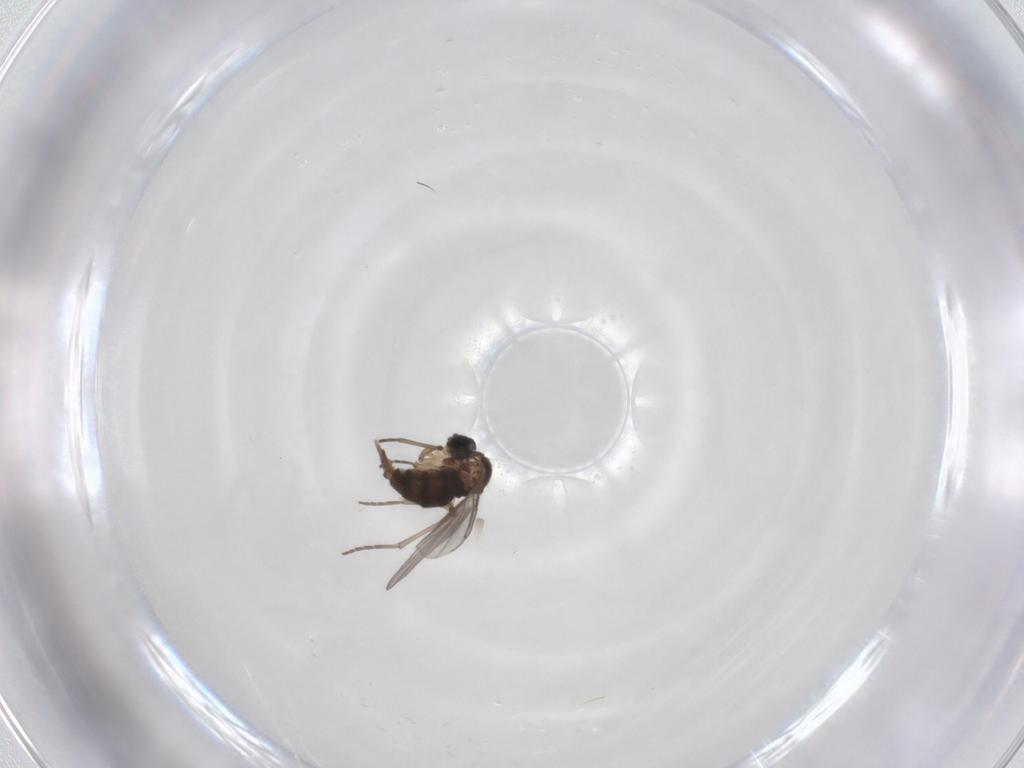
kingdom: Animalia
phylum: Arthropoda
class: Insecta
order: Diptera
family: Sciaridae
